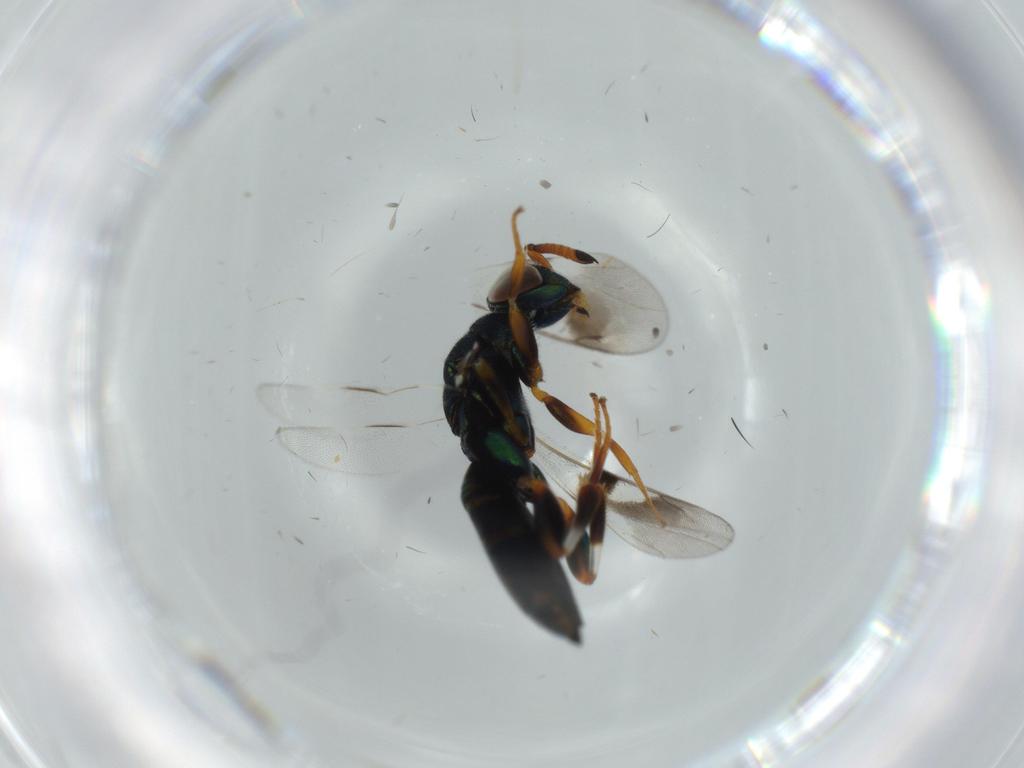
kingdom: Animalia
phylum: Arthropoda
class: Insecta
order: Hymenoptera
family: Cleonyminae
